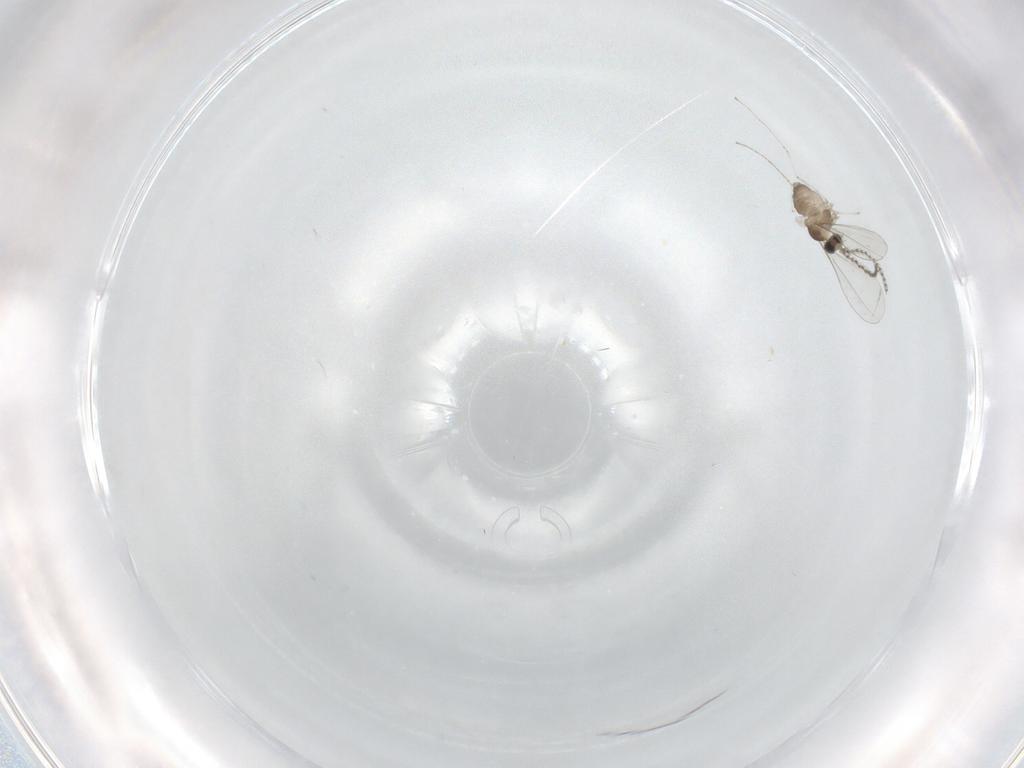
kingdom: Animalia
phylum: Arthropoda
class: Insecta
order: Diptera
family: Cecidomyiidae
